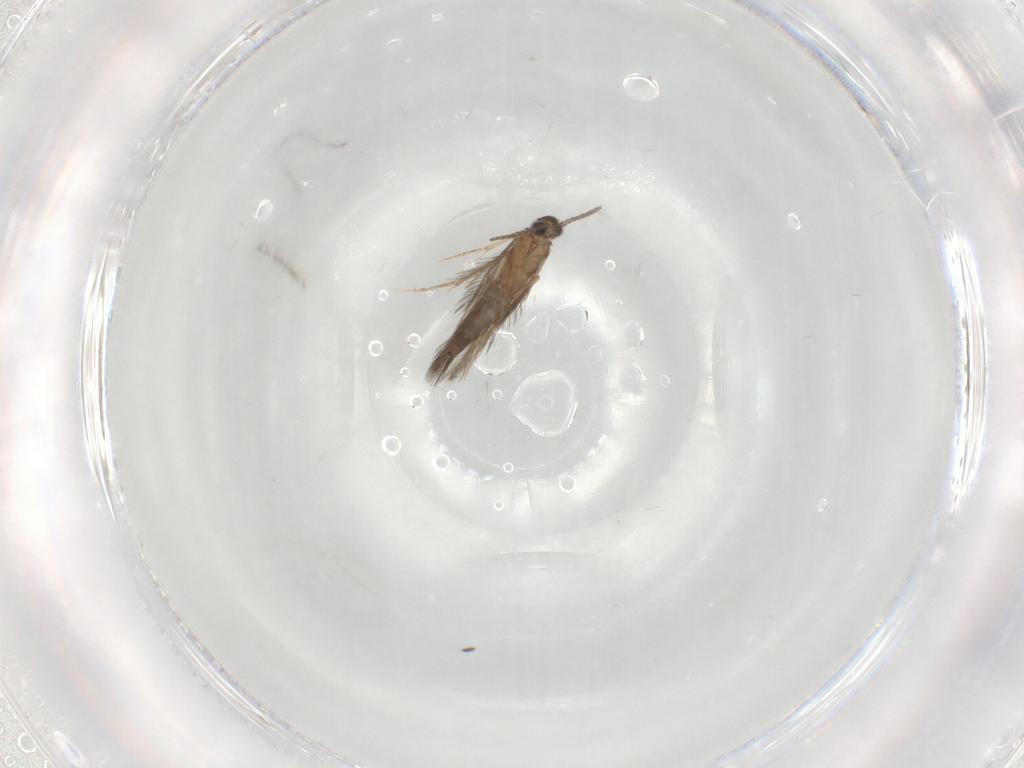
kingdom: Animalia
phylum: Arthropoda
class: Insecta
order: Trichoptera
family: Hydroptilidae
